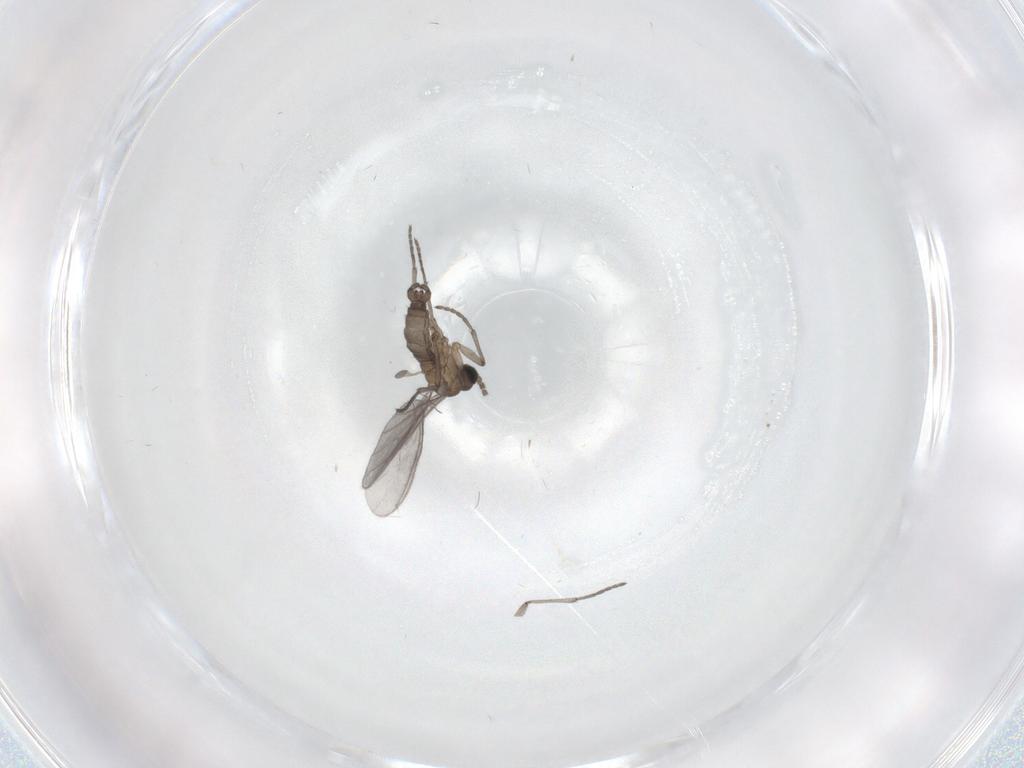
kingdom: Animalia
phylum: Arthropoda
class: Insecta
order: Diptera
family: Sciaridae
